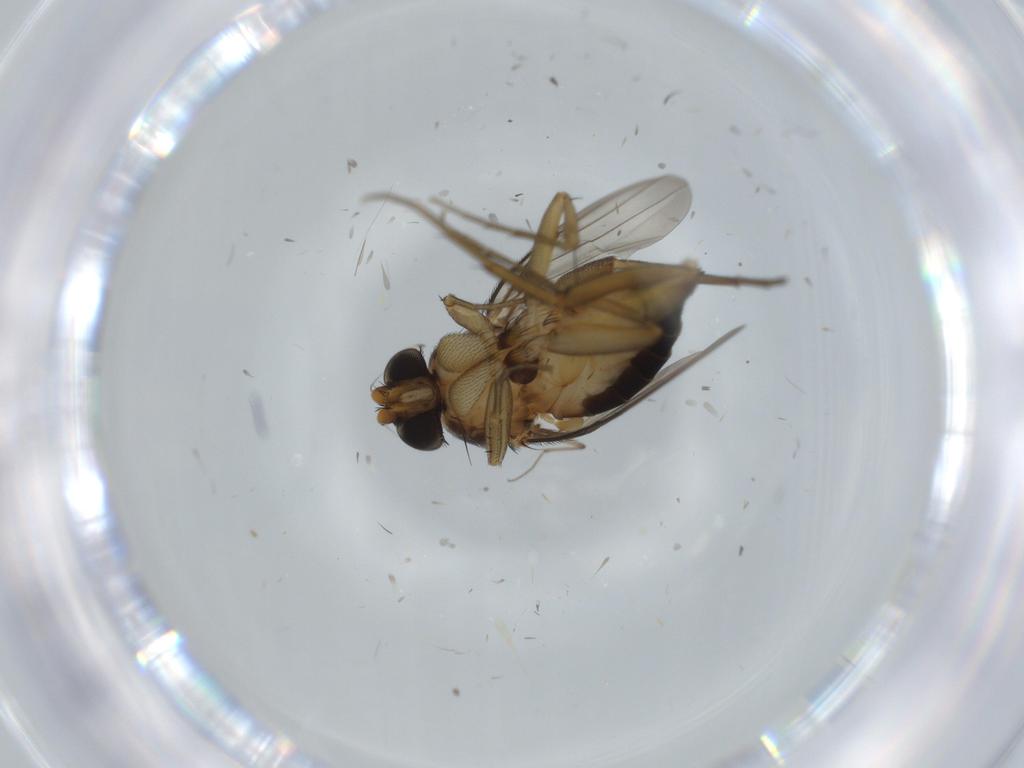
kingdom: Animalia
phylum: Arthropoda
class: Insecta
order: Diptera
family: Phoridae
